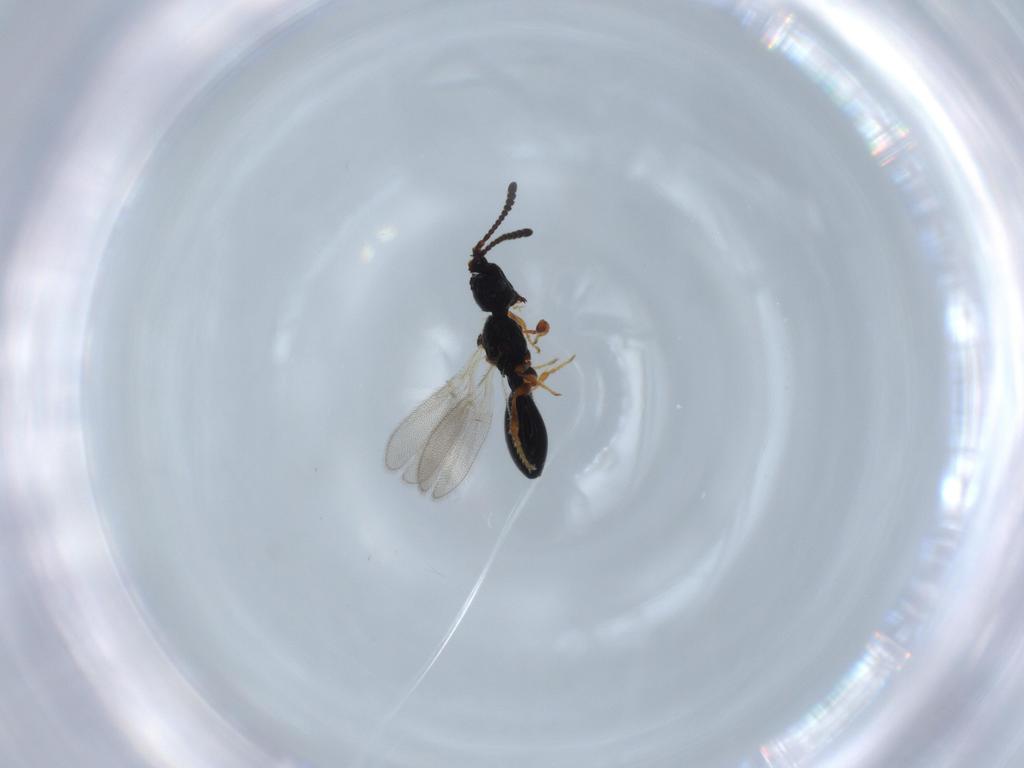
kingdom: Animalia
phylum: Arthropoda
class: Insecta
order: Hymenoptera
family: Diapriidae
